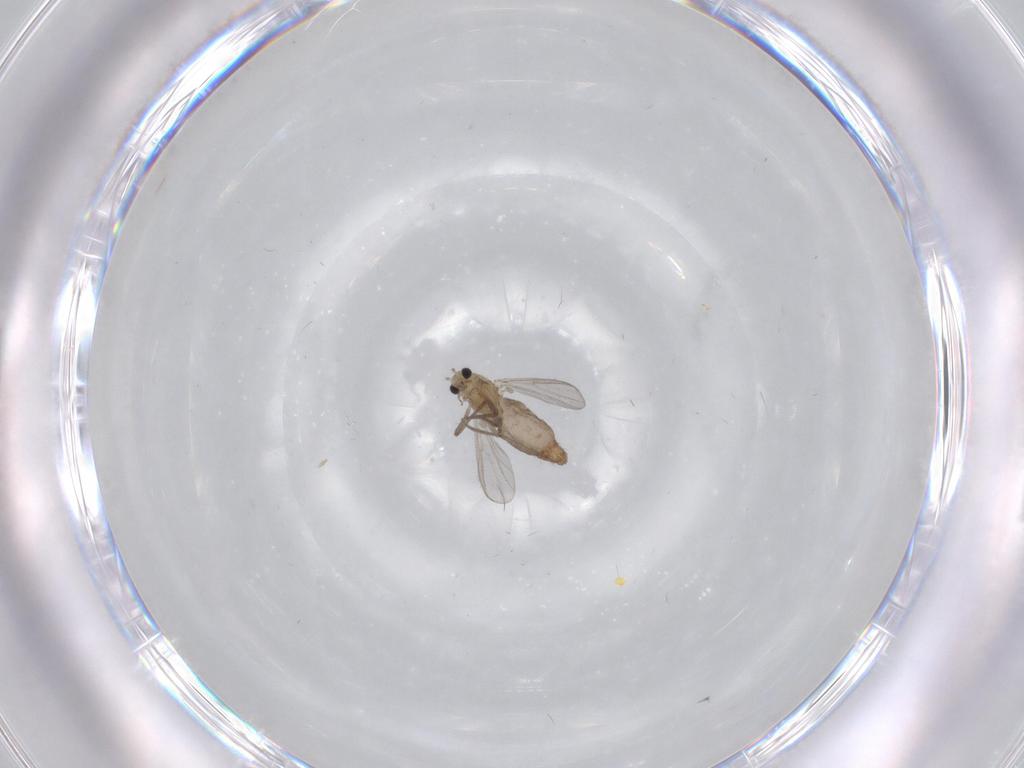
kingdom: Animalia
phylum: Arthropoda
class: Insecta
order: Diptera
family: Chironomidae
